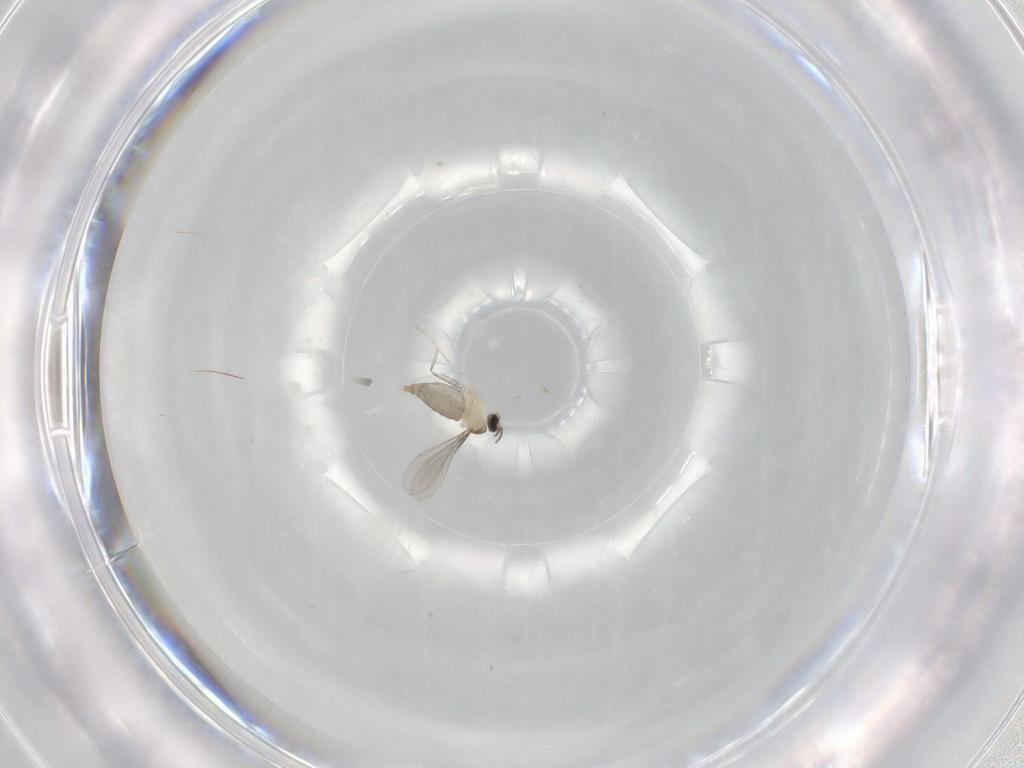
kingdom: Animalia
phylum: Arthropoda
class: Insecta
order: Diptera
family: Cecidomyiidae
